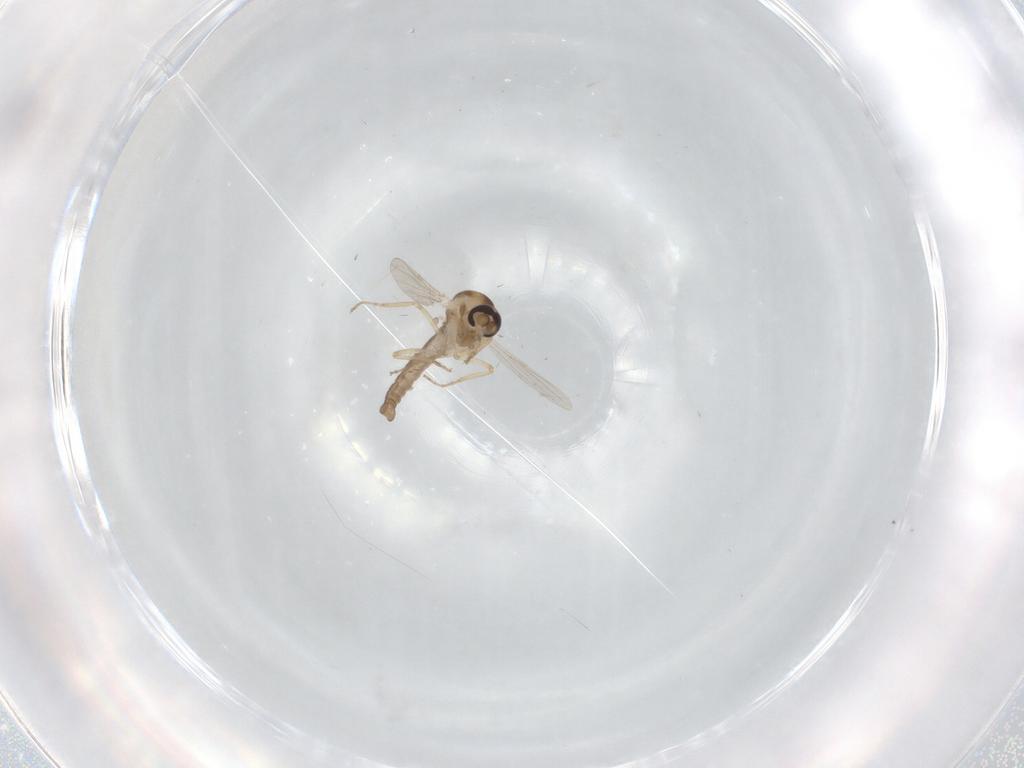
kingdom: Animalia
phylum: Arthropoda
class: Insecta
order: Diptera
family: Ceratopogonidae
